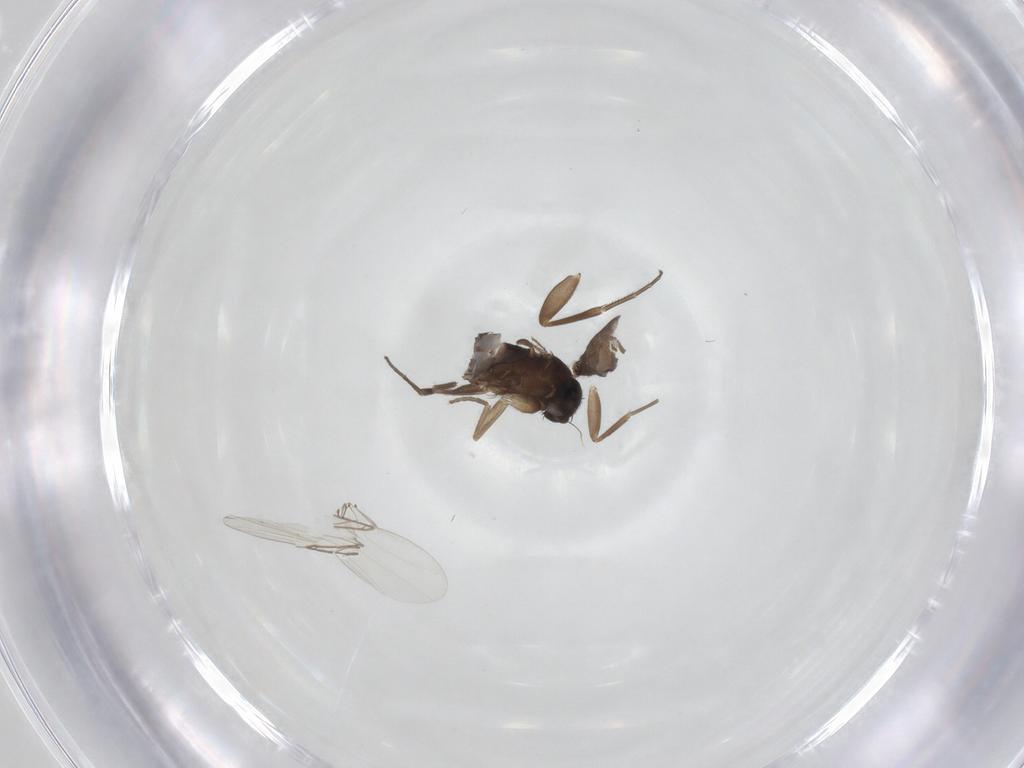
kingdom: Animalia
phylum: Arthropoda
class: Insecta
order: Diptera
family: Phoridae
